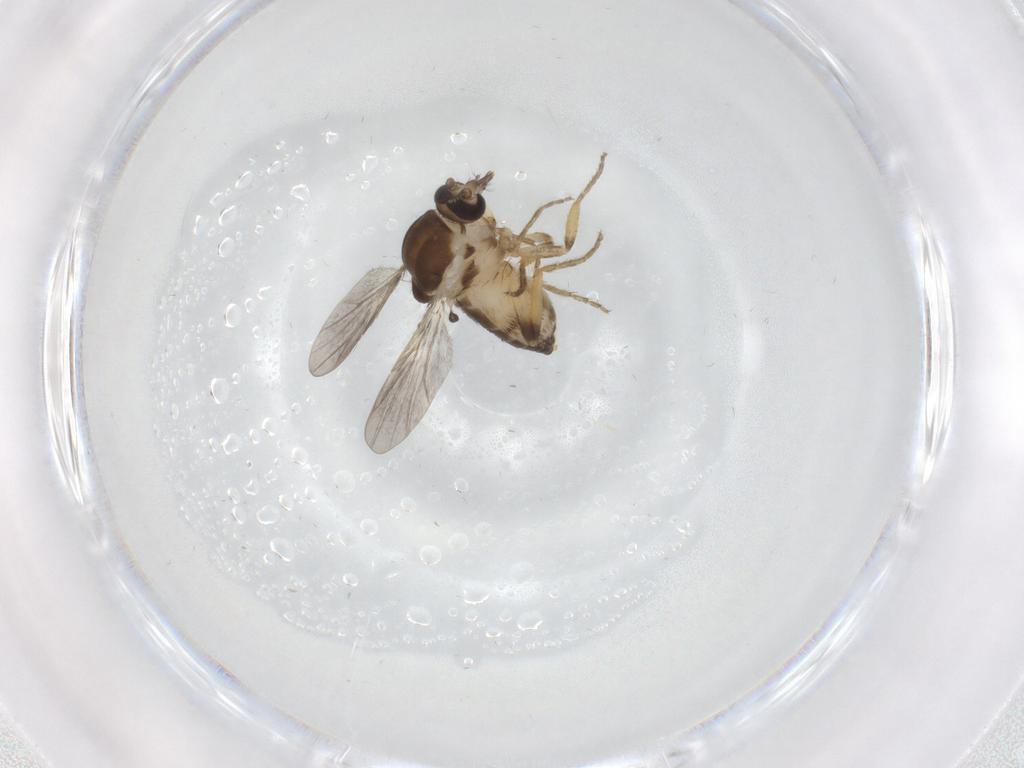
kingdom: Animalia
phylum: Arthropoda
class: Insecta
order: Diptera
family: Ceratopogonidae
